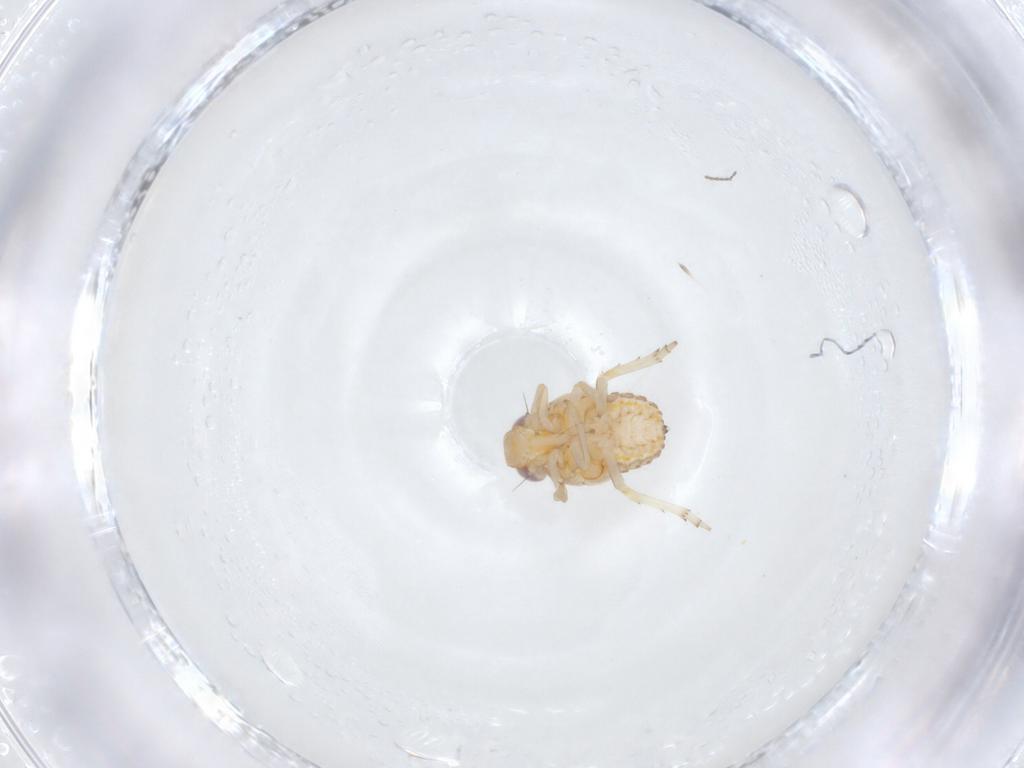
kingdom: Animalia
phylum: Arthropoda
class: Insecta
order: Hemiptera
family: Issidae
